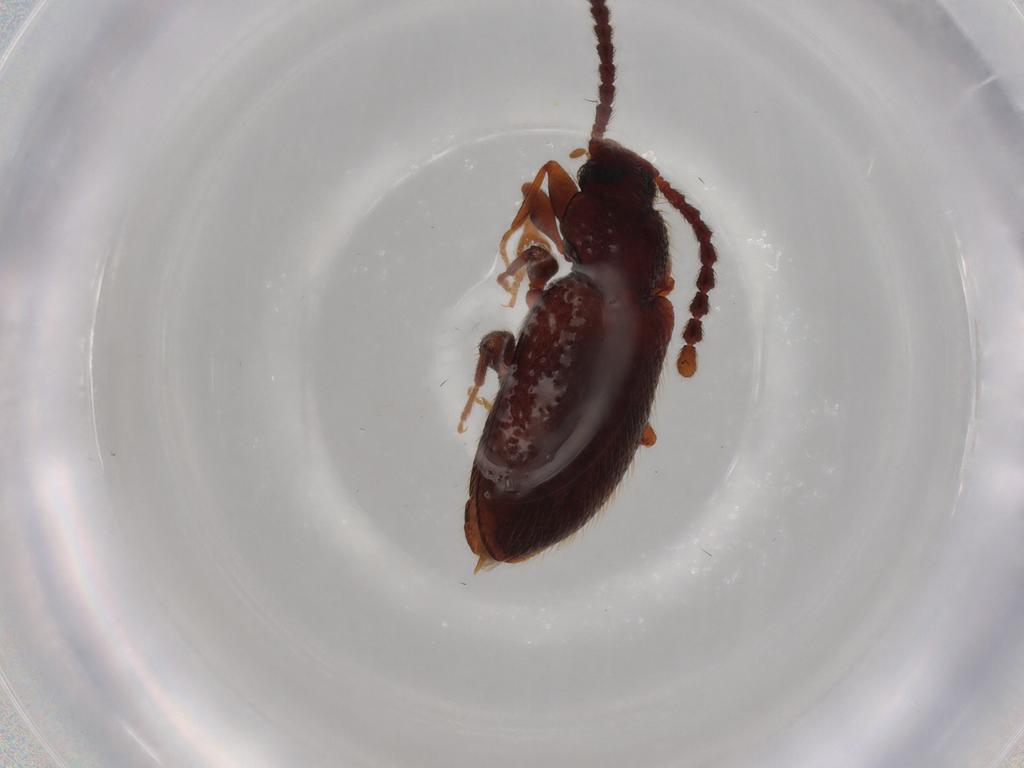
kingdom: Animalia
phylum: Arthropoda
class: Insecta
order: Coleoptera
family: Tenebrionidae
